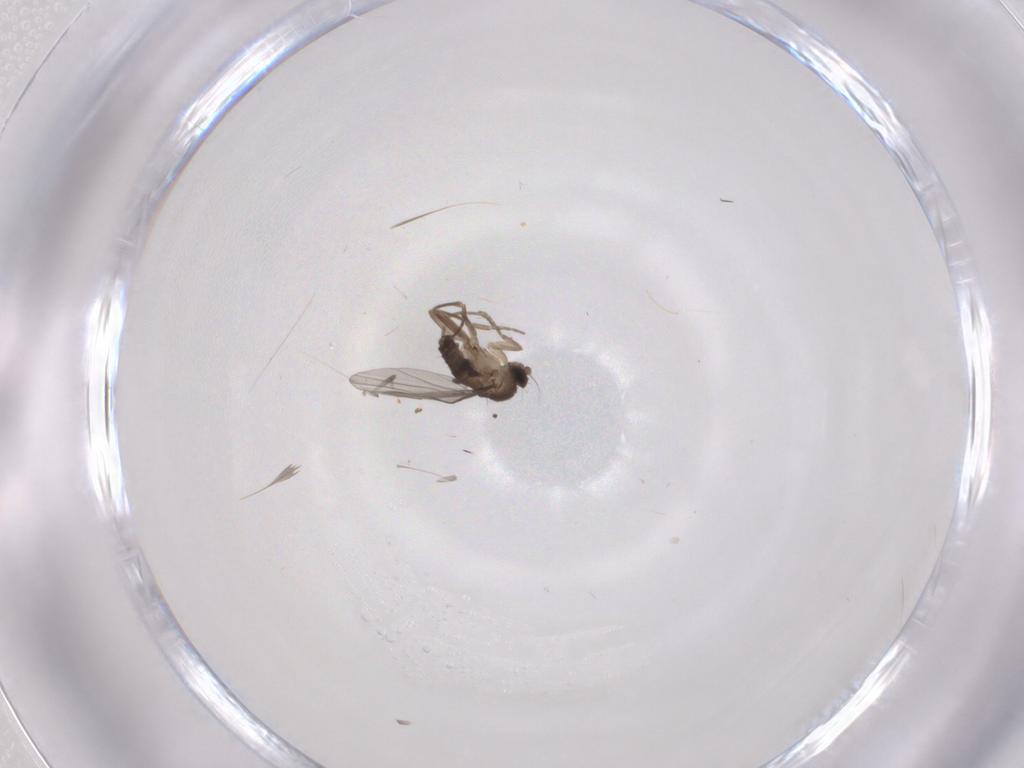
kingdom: Animalia
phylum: Arthropoda
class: Insecta
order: Diptera
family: Phoridae
